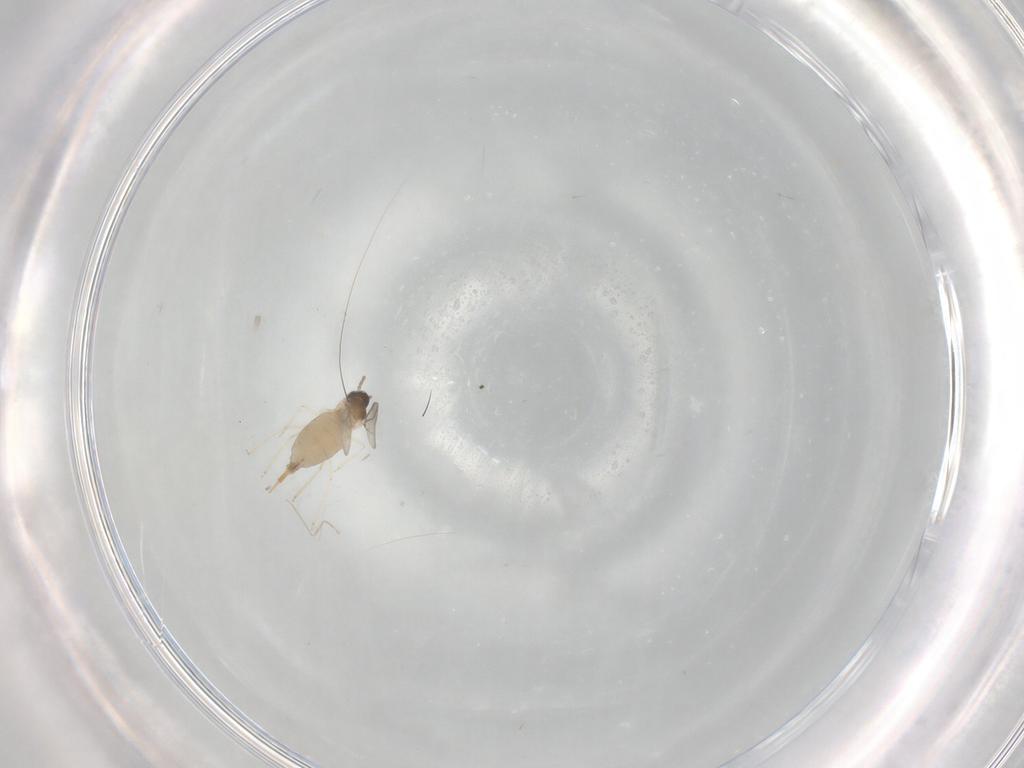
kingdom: Animalia
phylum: Arthropoda
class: Insecta
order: Diptera
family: Cecidomyiidae
